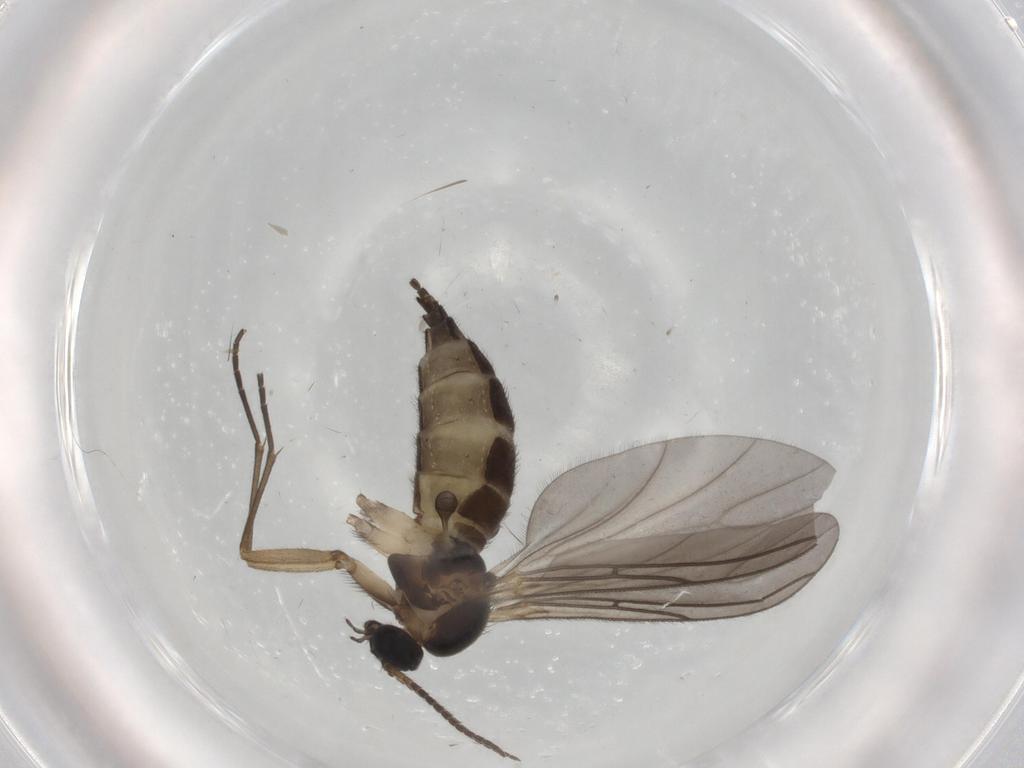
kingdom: Animalia
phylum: Arthropoda
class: Insecta
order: Diptera
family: Sciaridae
